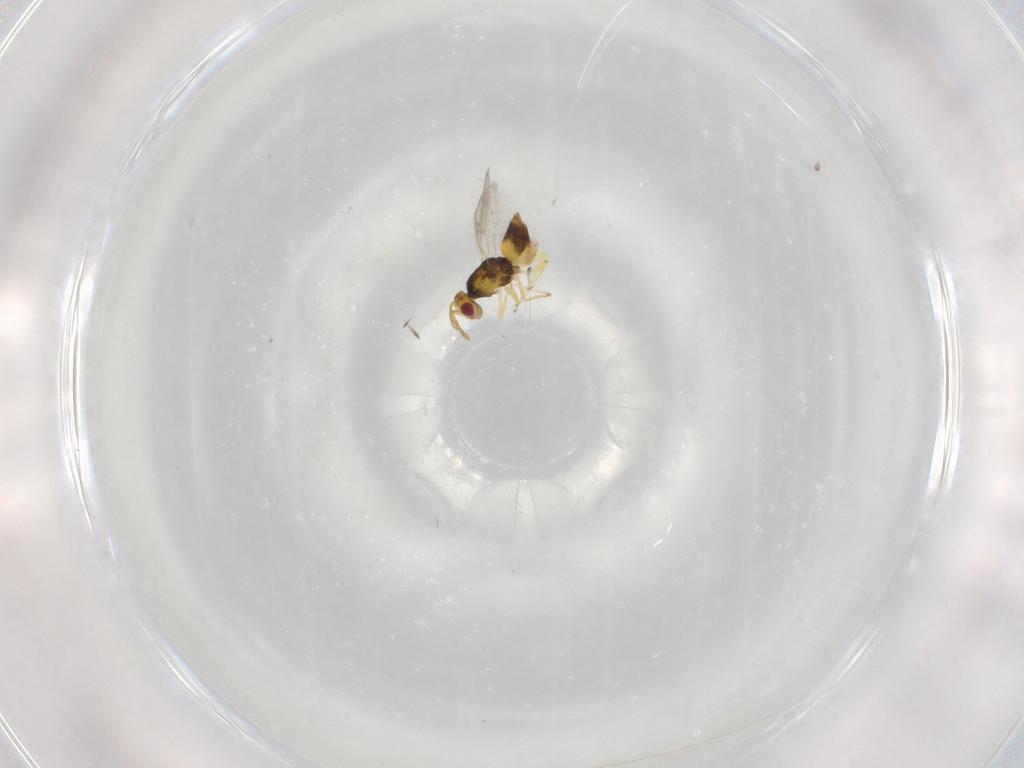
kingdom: Animalia
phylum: Arthropoda
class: Insecta
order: Hymenoptera
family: Eulophidae
